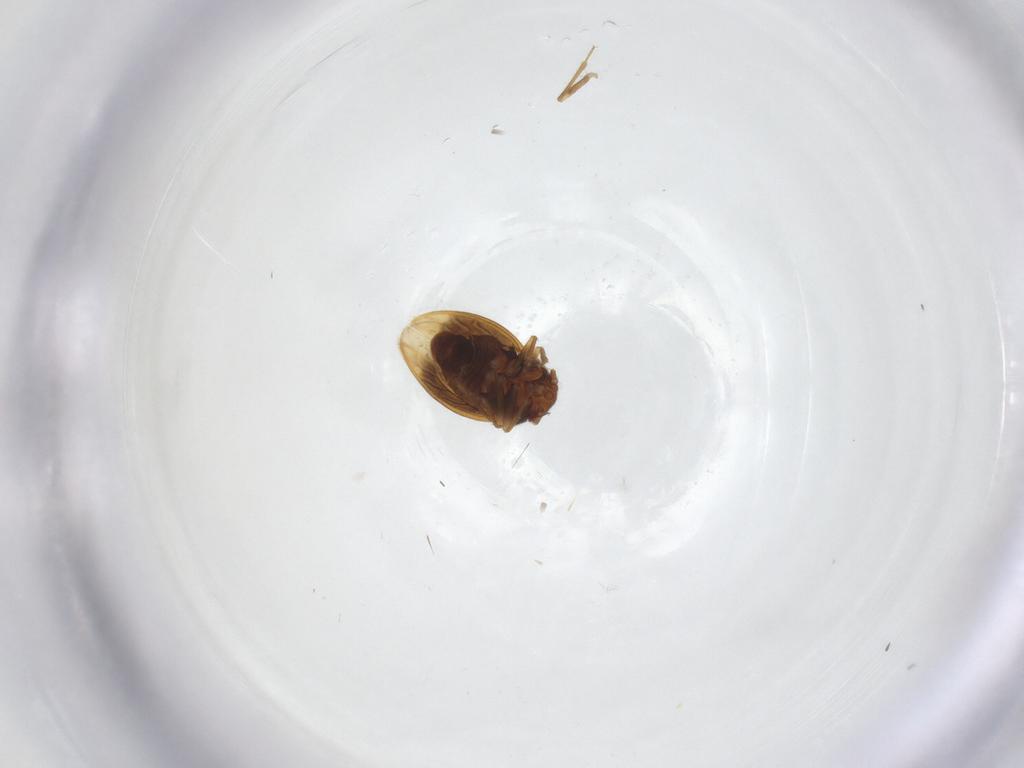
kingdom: Animalia
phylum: Arthropoda
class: Insecta
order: Hemiptera
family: Schizopteridae
